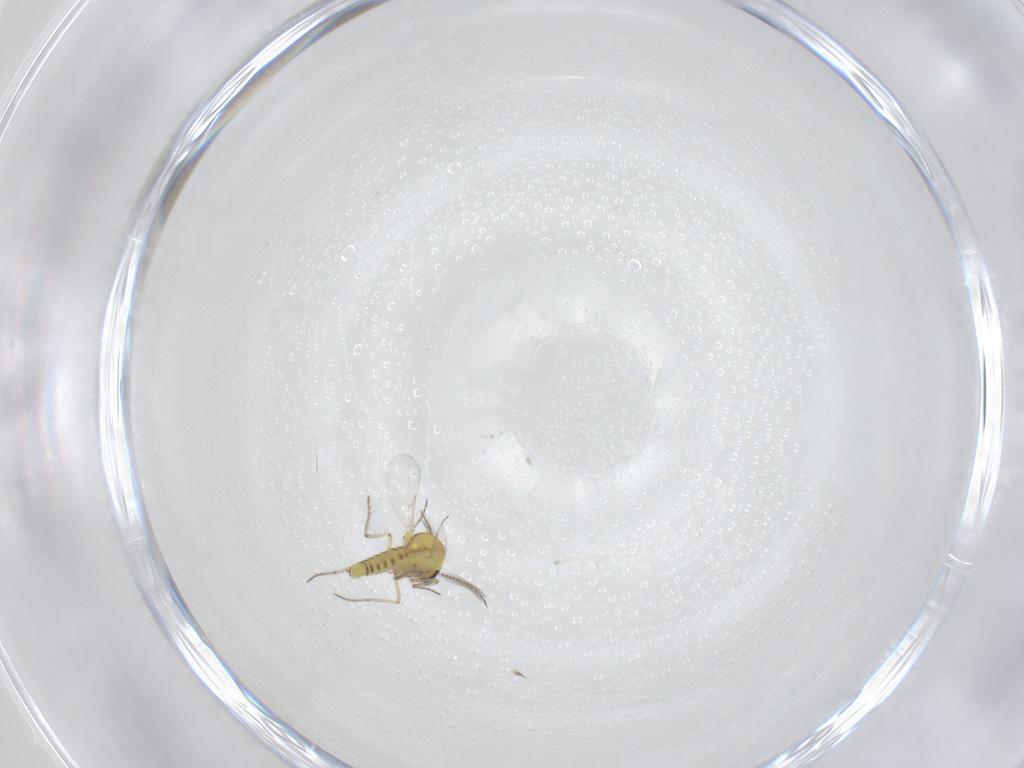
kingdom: Animalia
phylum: Arthropoda
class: Insecta
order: Diptera
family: Ceratopogonidae
